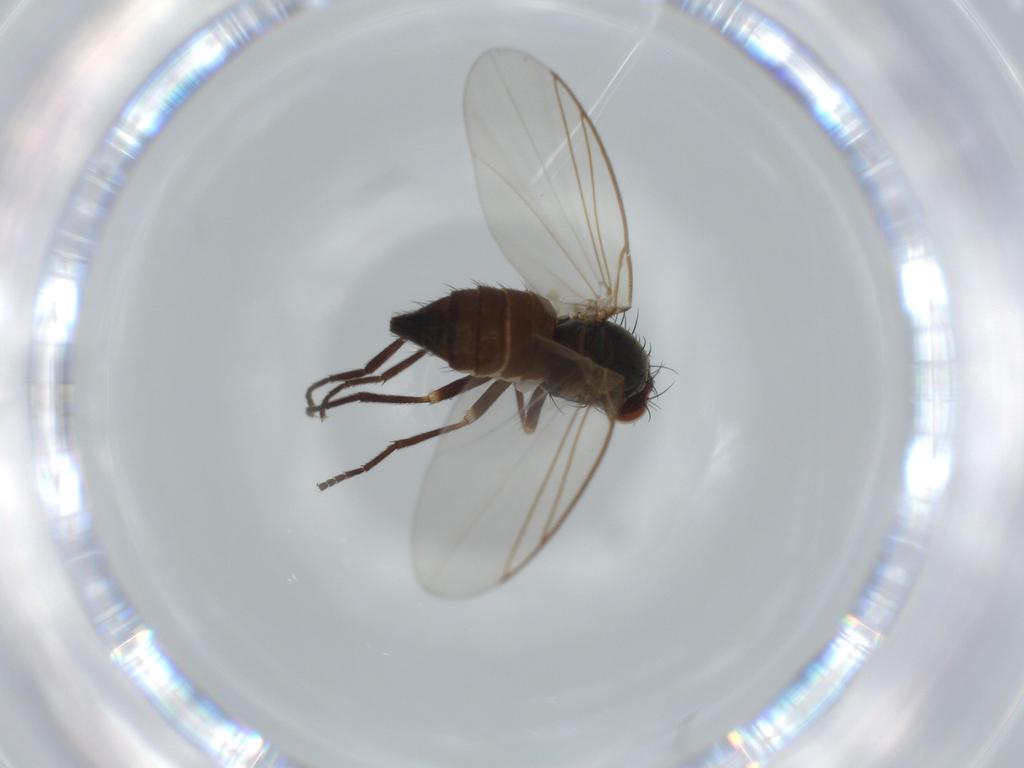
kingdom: Animalia
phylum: Arthropoda
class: Insecta
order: Diptera
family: Agromyzidae
